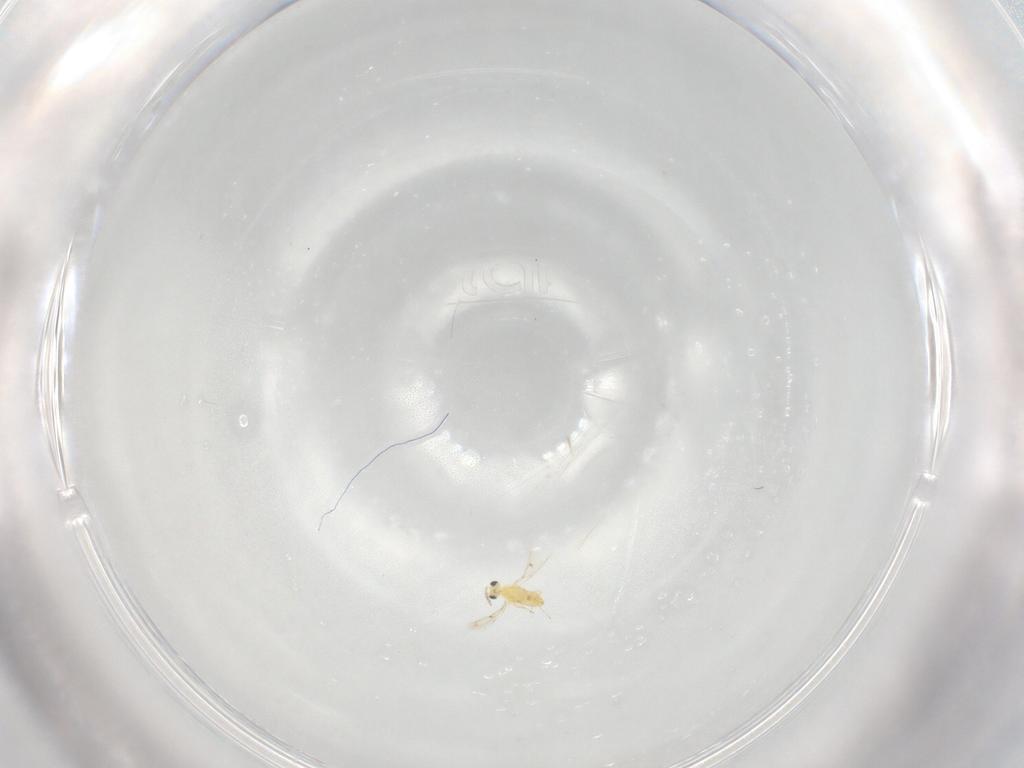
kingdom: Animalia
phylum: Arthropoda
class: Insecta
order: Hymenoptera
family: Trichogrammatidae
